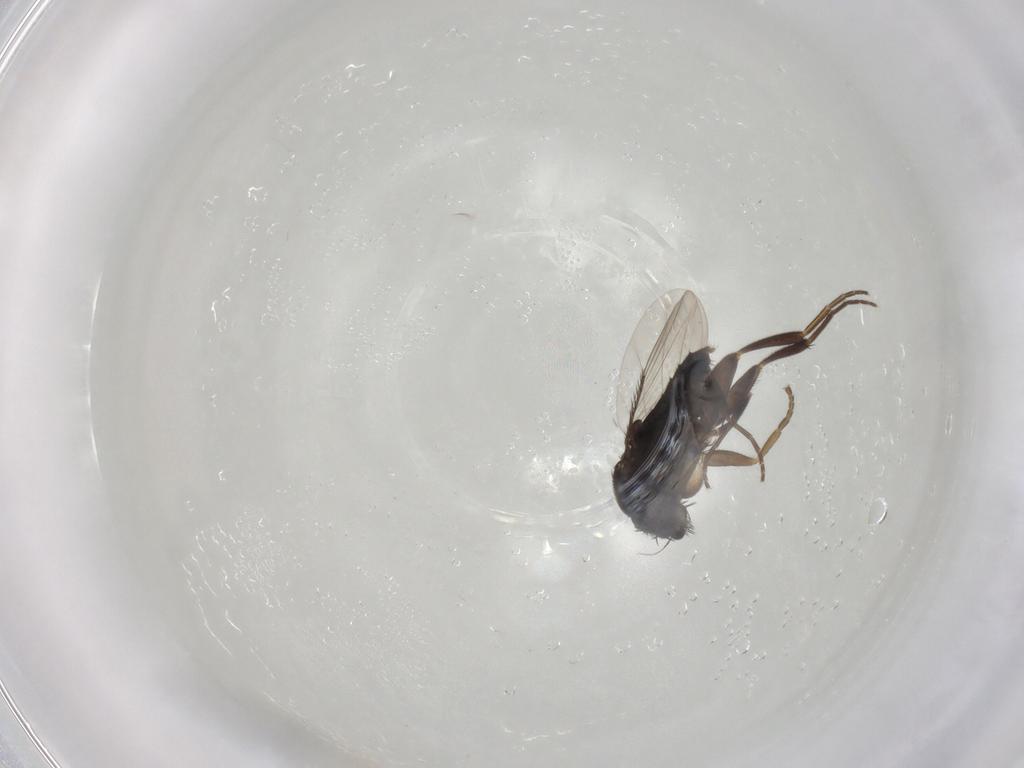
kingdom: Animalia
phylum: Arthropoda
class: Insecta
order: Diptera
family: Phoridae
